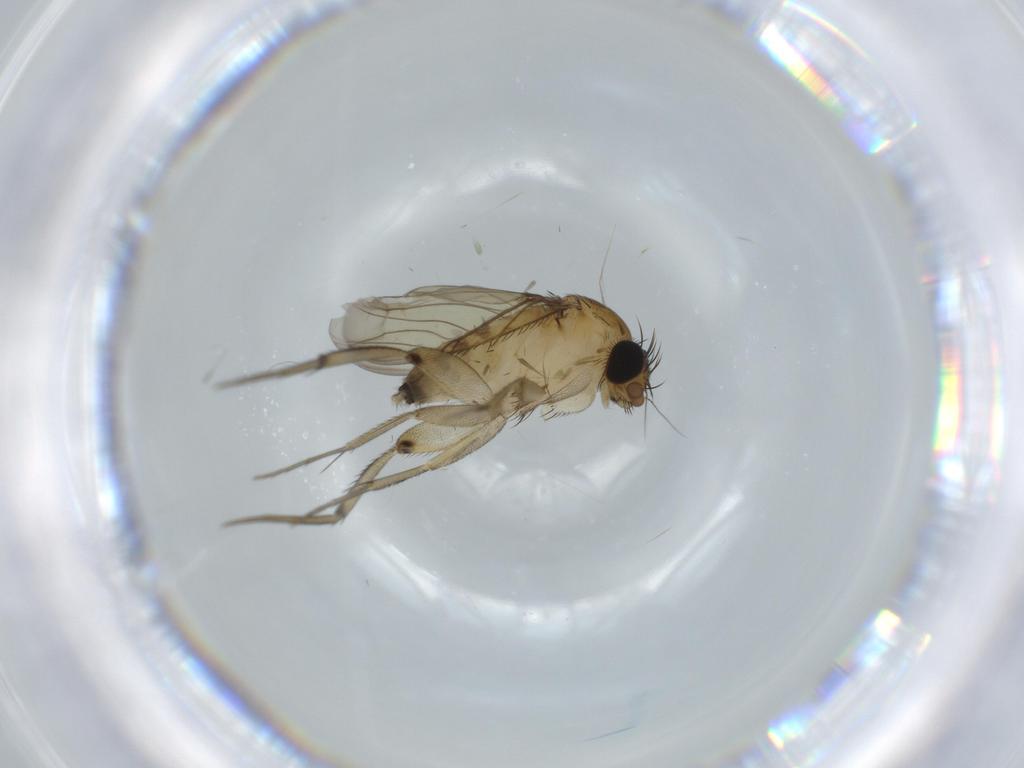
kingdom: Animalia
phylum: Arthropoda
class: Insecta
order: Diptera
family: Phoridae
